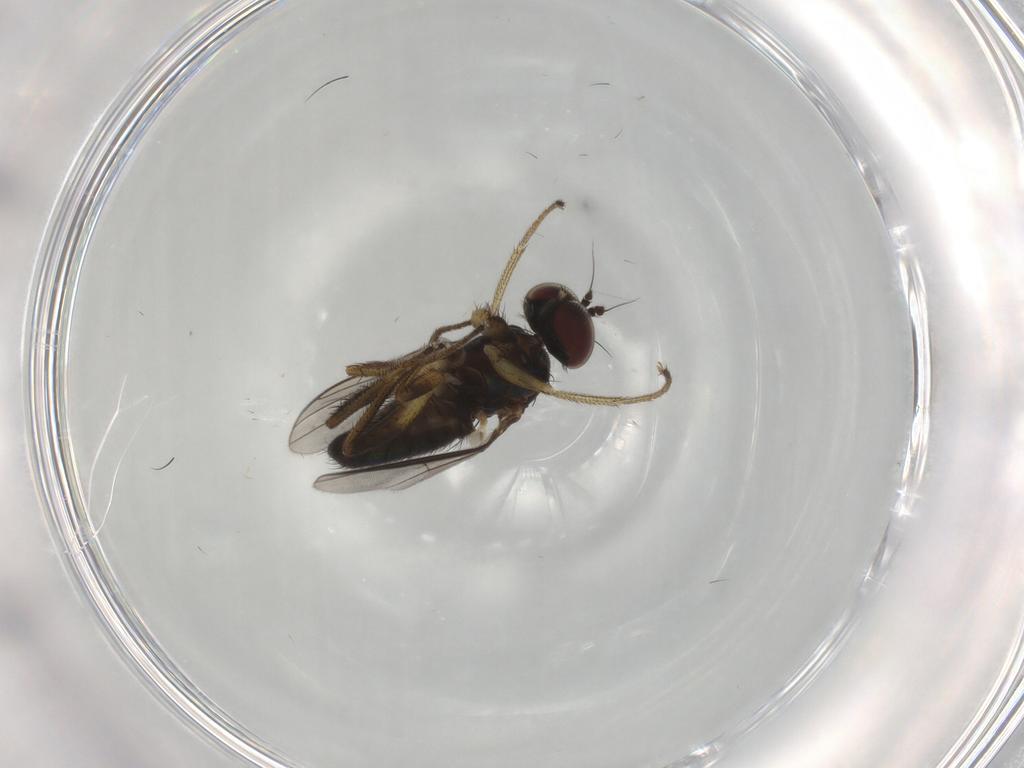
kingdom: Animalia
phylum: Arthropoda
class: Insecta
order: Diptera
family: Dolichopodidae
